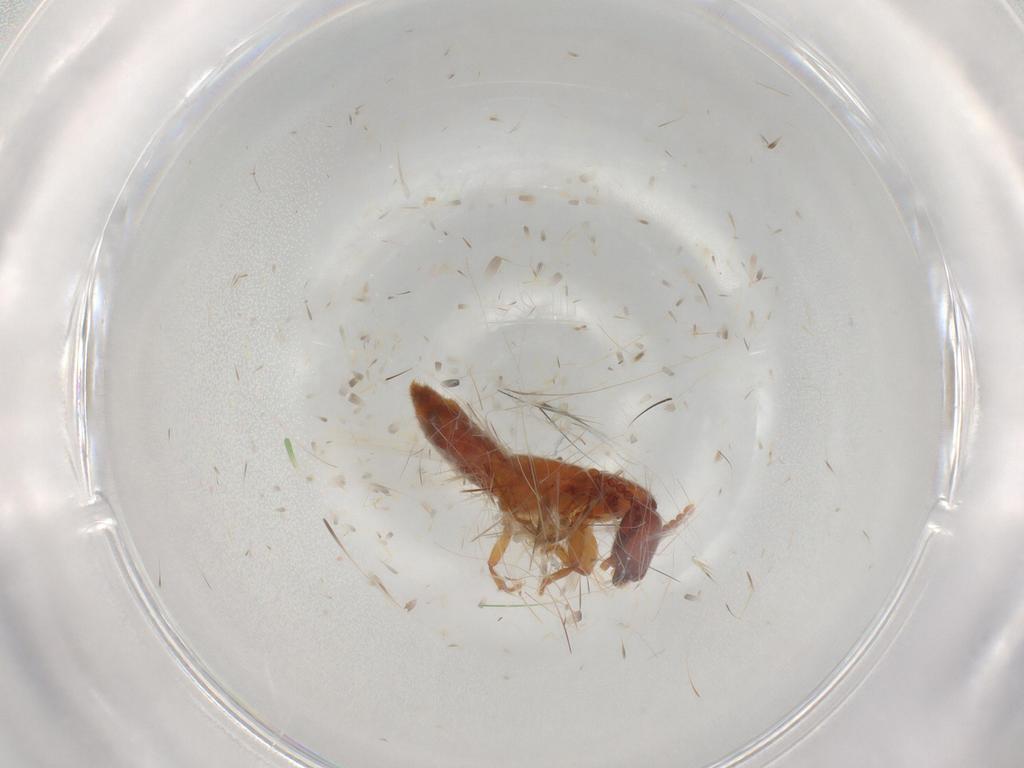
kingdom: Animalia
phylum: Arthropoda
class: Insecta
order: Coleoptera
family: Staphylinidae
